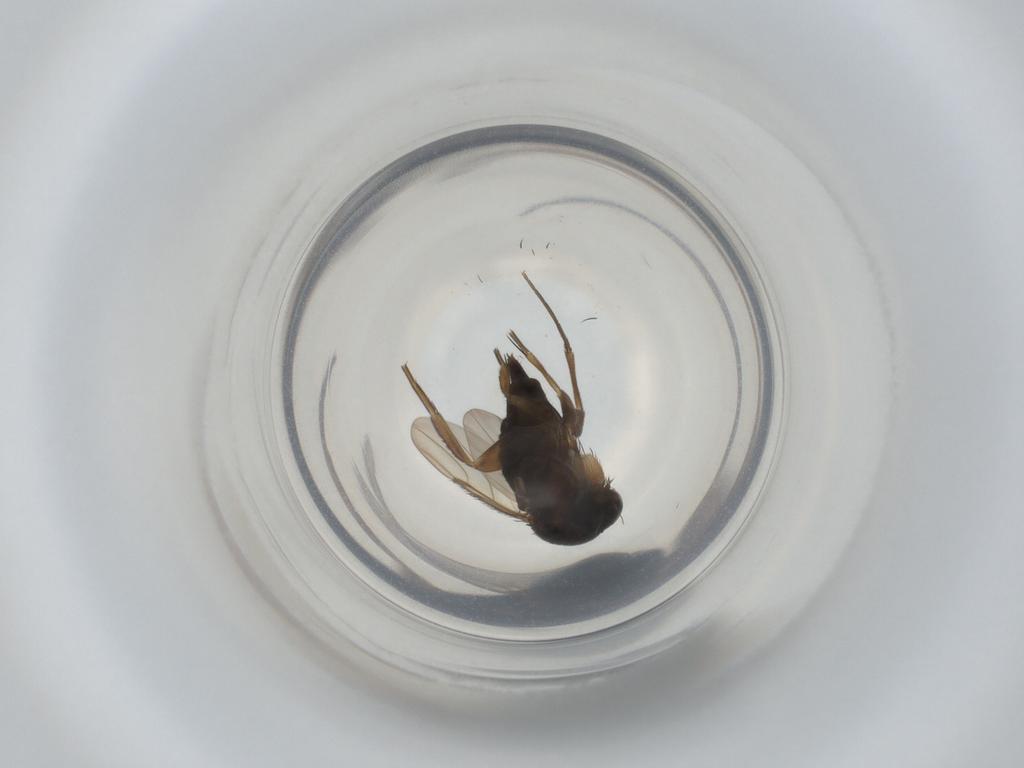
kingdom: Animalia
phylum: Arthropoda
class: Insecta
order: Diptera
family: Phoridae
